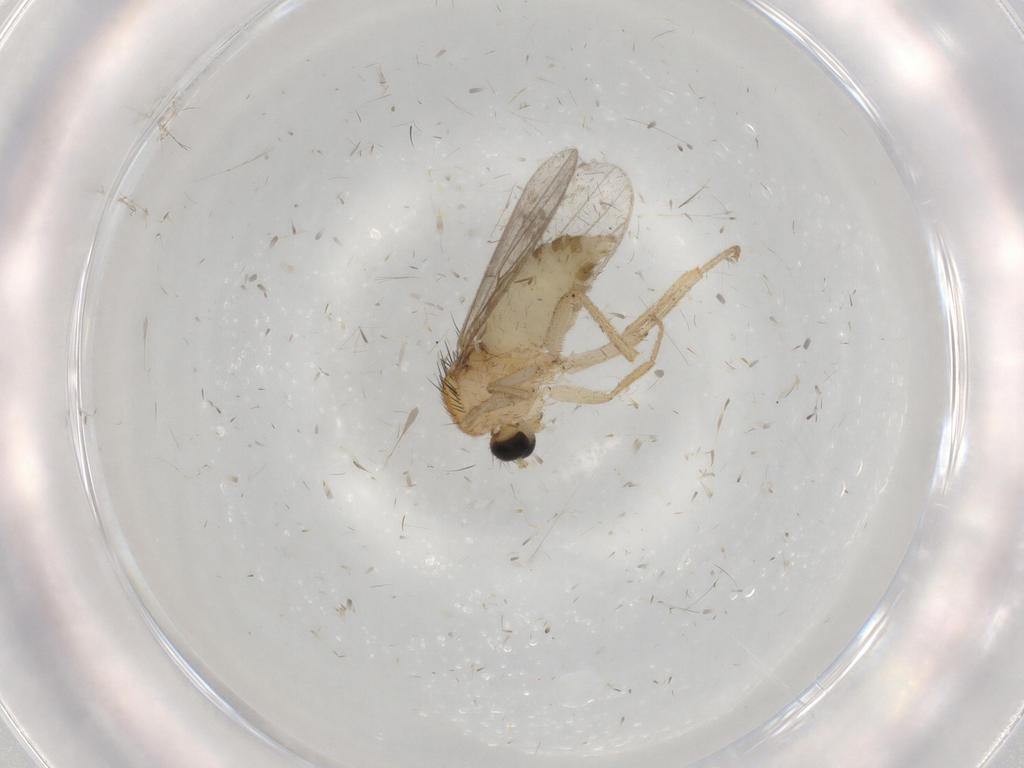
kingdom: Animalia
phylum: Arthropoda
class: Insecta
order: Diptera
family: Hybotidae
